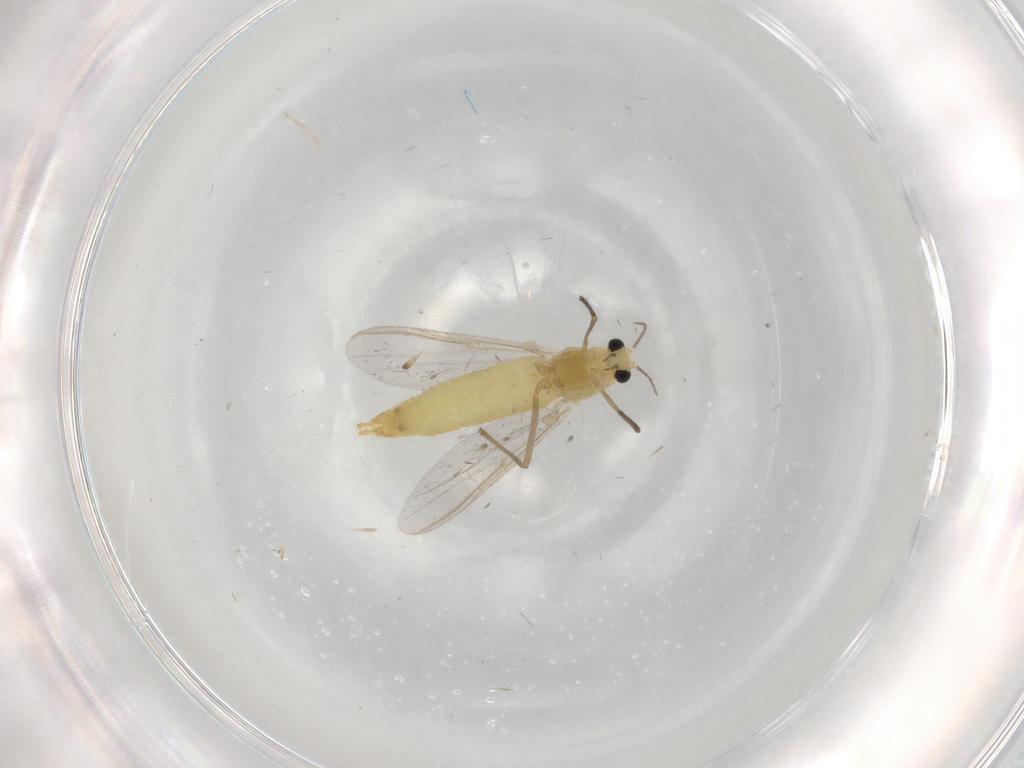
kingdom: Animalia
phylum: Arthropoda
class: Insecta
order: Diptera
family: Chironomidae
